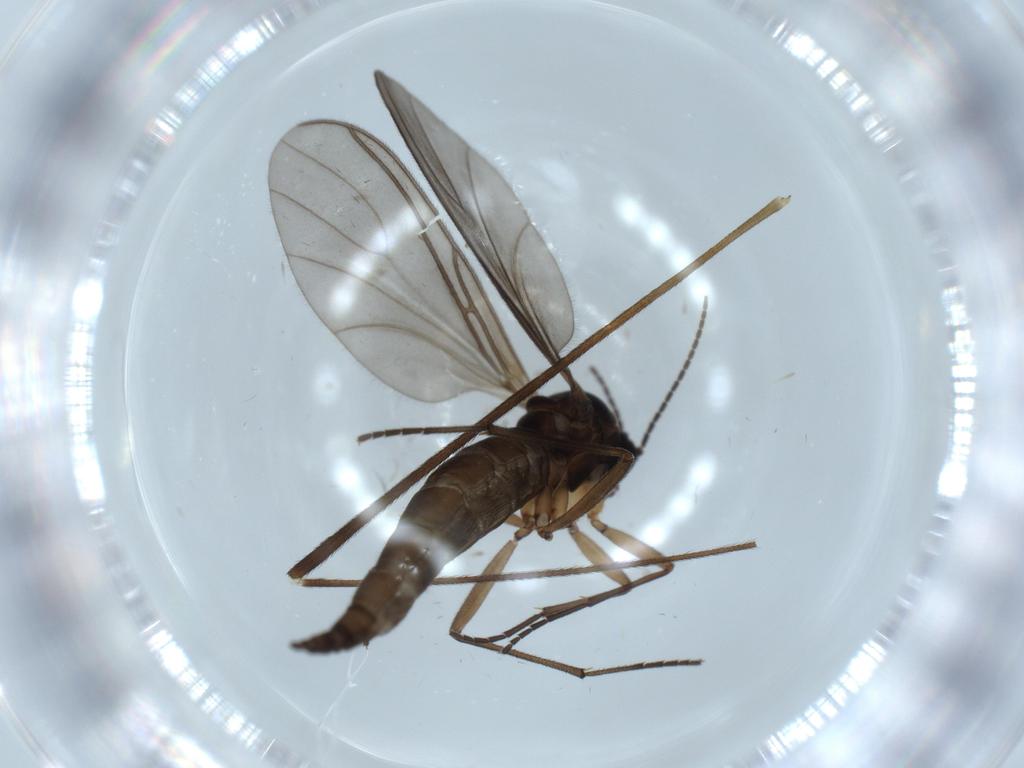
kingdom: Animalia
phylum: Arthropoda
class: Insecta
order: Diptera
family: Sciaridae
